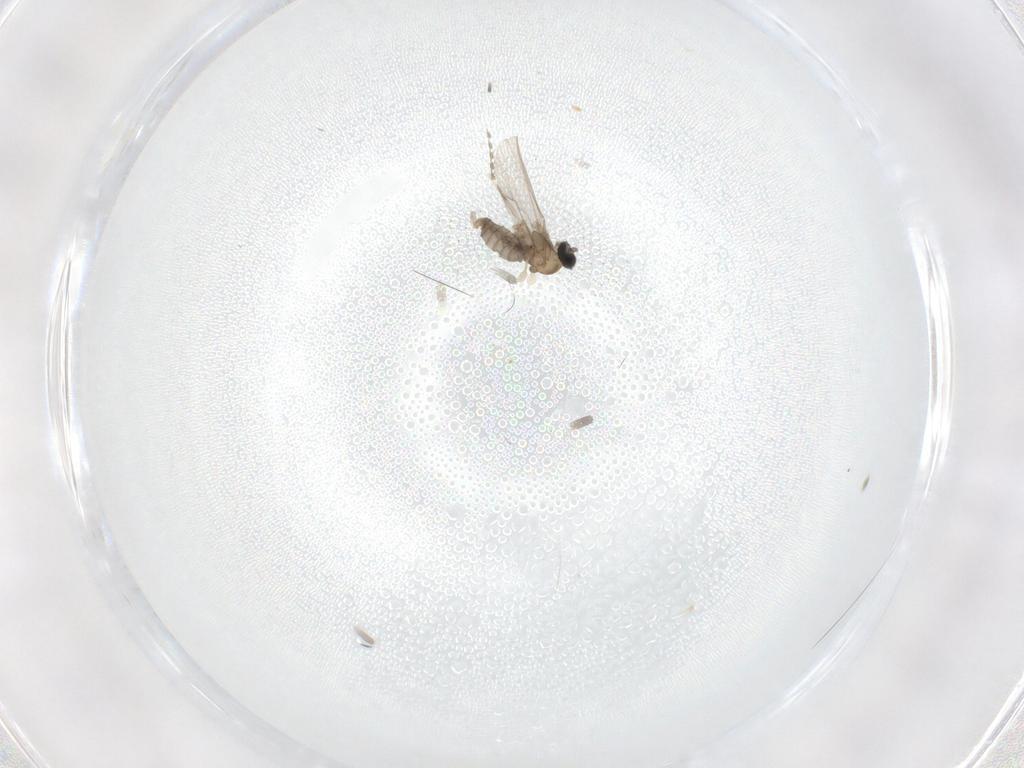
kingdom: Animalia
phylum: Arthropoda
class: Insecta
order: Diptera
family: Psychodidae
